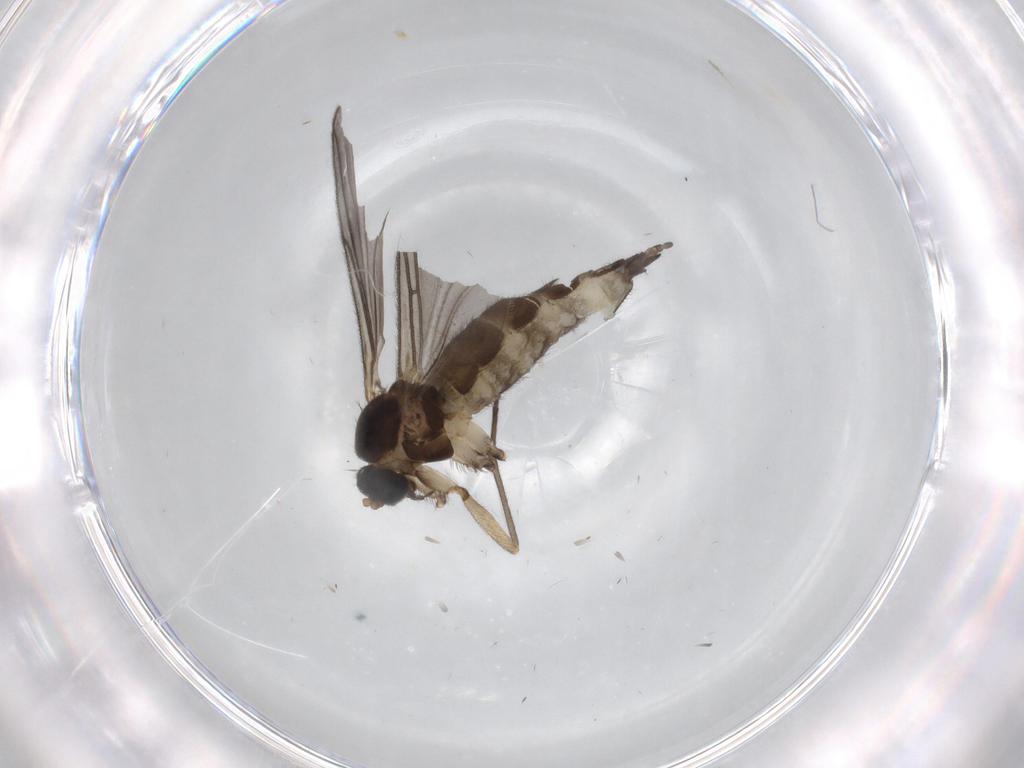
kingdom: Animalia
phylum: Arthropoda
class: Insecta
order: Diptera
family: Sciaridae
